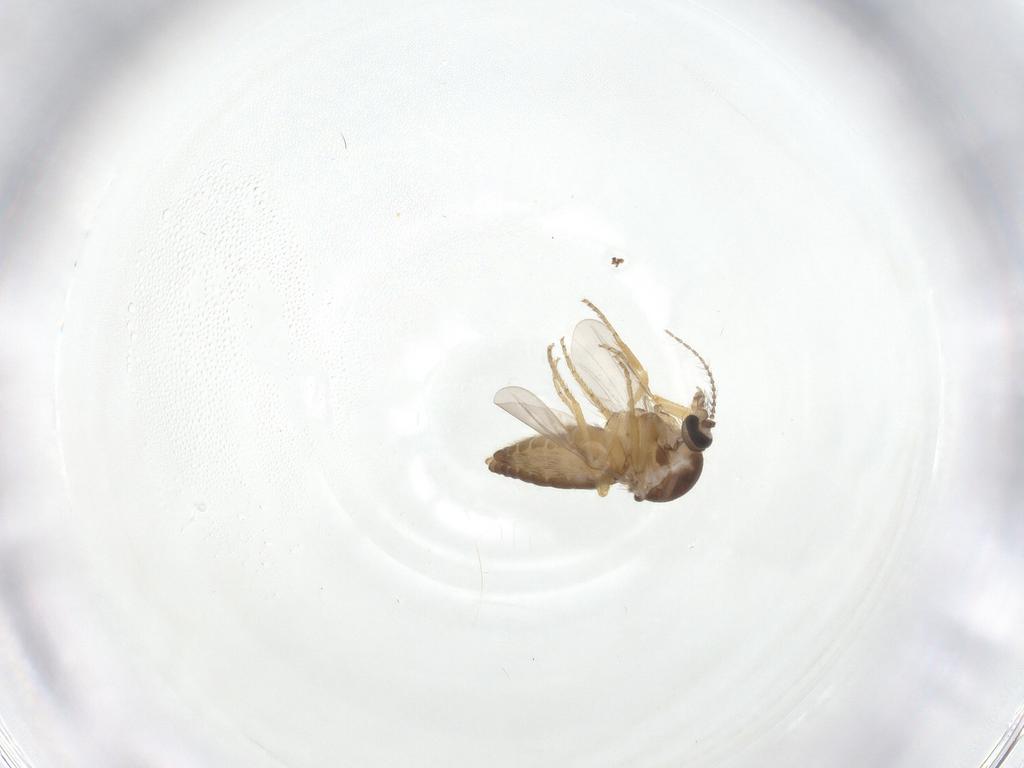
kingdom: Animalia
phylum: Arthropoda
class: Insecta
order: Diptera
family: Ceratopogonidae
